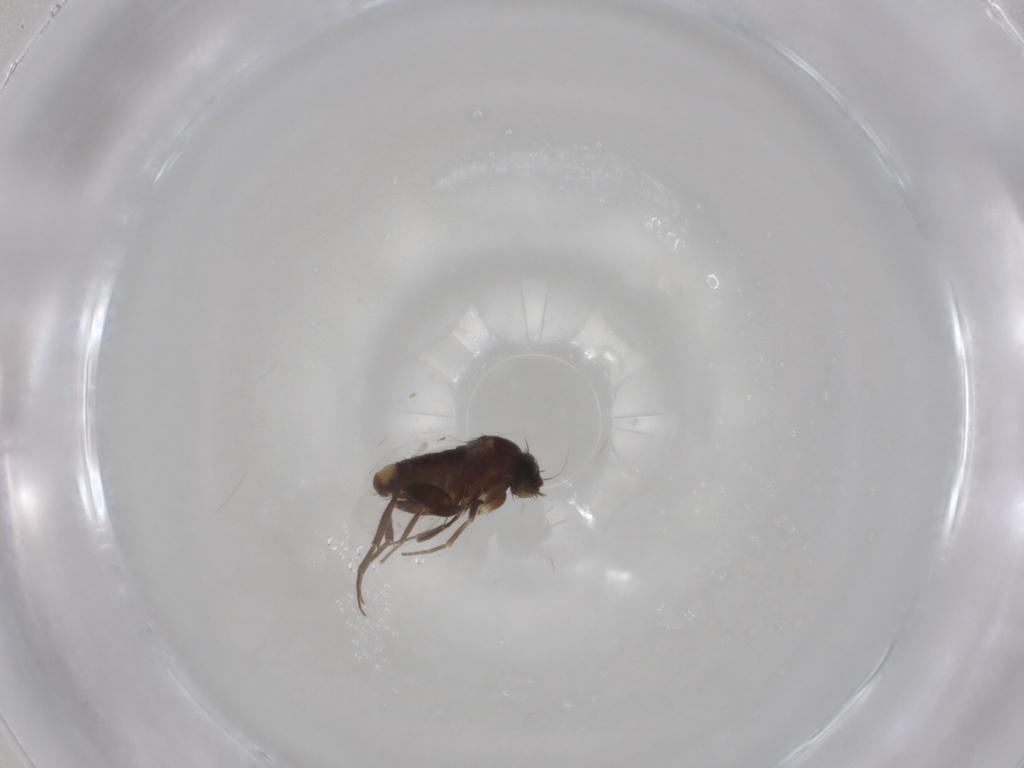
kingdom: Animalia
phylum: Arthropoda
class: Insecta
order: Diptera
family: Phoridae
